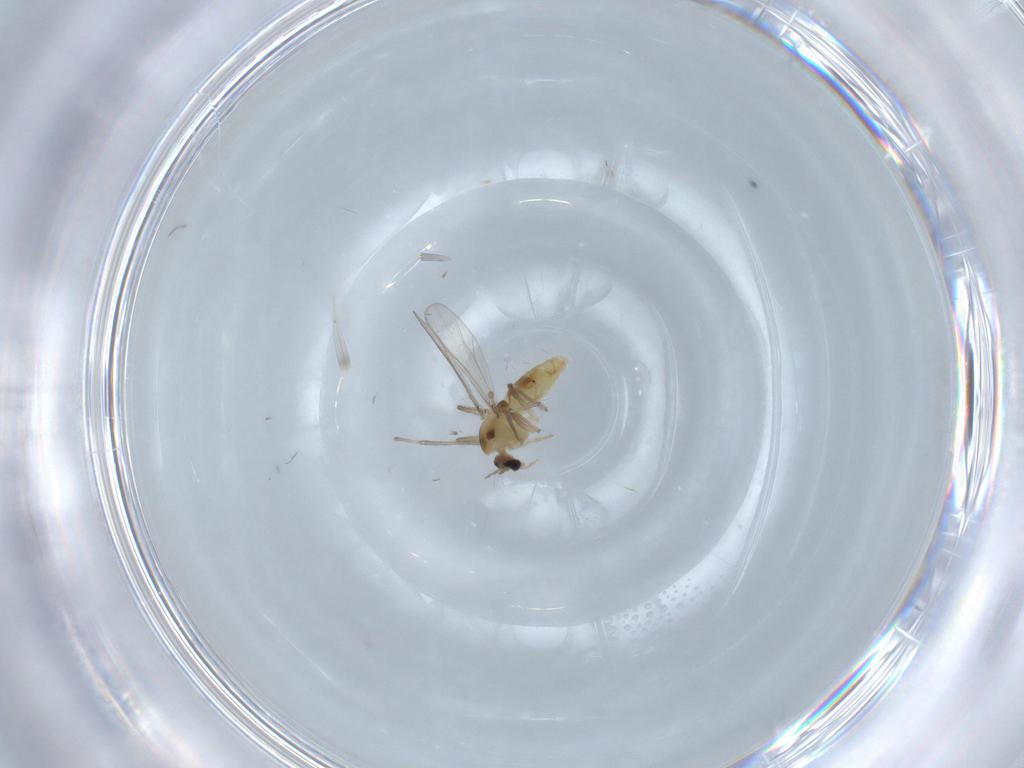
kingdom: Animalia
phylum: Arthropoda
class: Insecta
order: Diptera
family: Chironomidae
